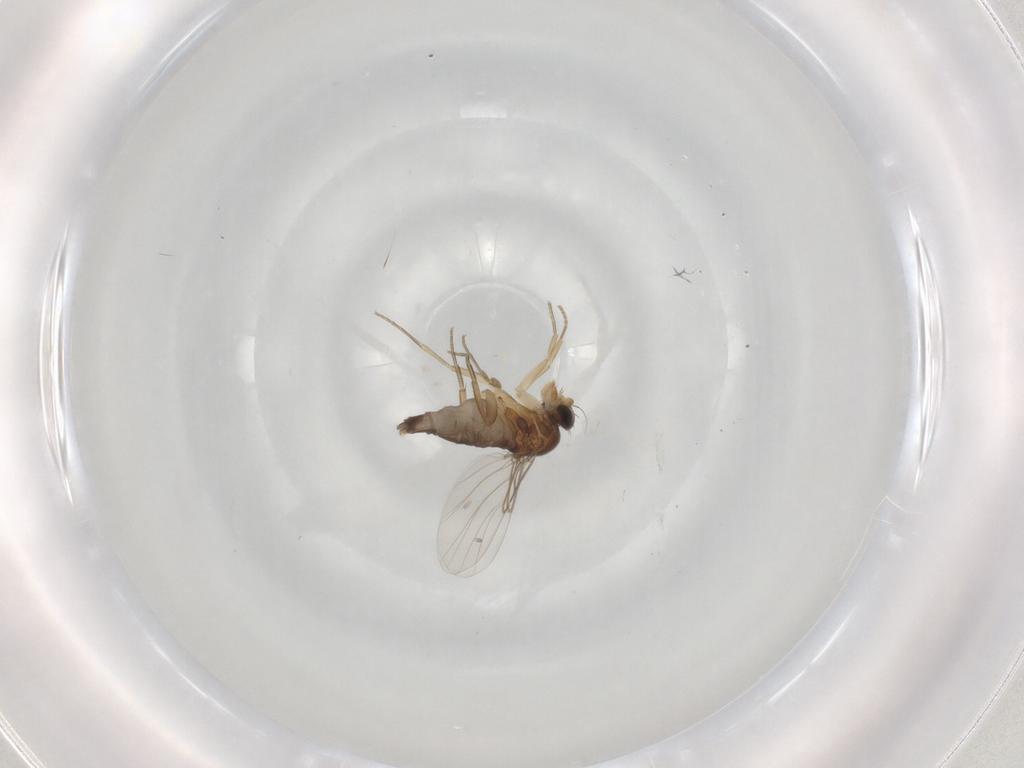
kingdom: Animalia
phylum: Arthropoda
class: Insecta
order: Diptera
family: Phoridae
